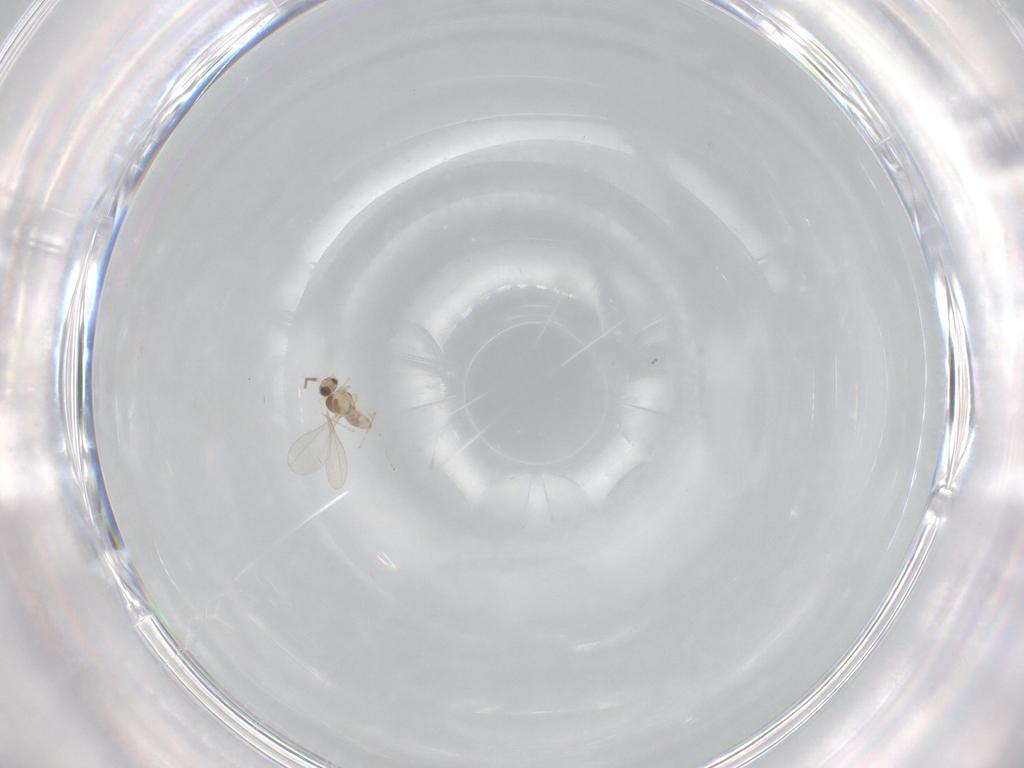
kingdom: Animalia
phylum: Arthropoda
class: Insecta
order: Diptera
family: Cecidomyiidae
